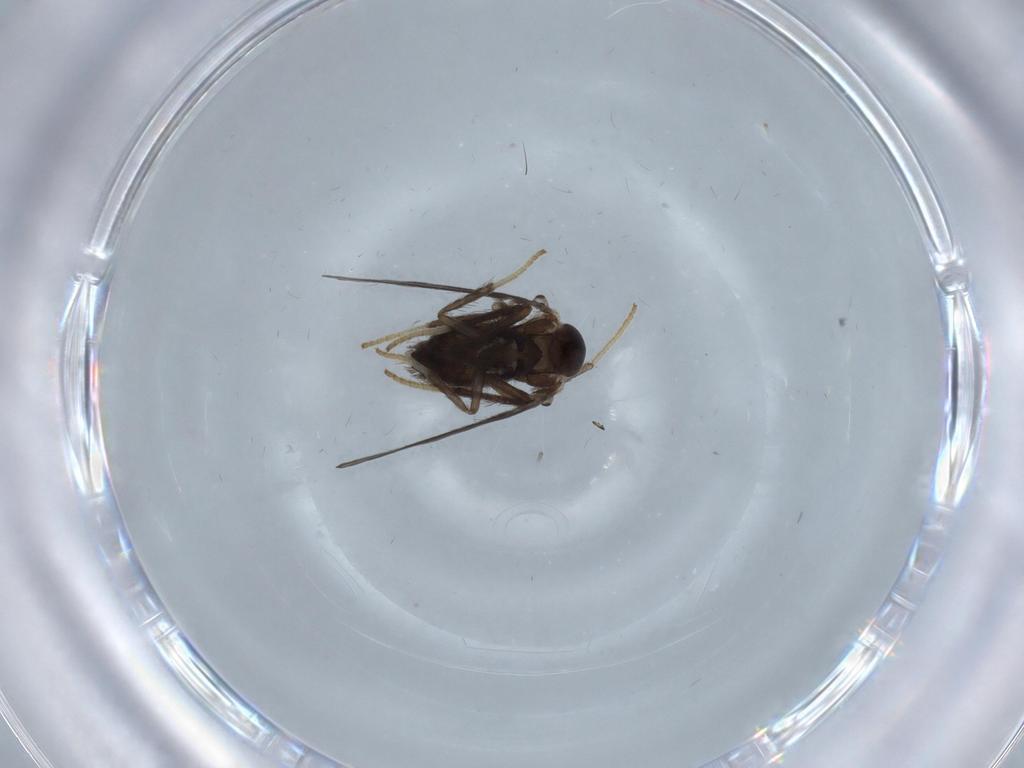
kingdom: Animalia
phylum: Arthropoda
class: Insecta
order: Diptera
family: Psychodidae
